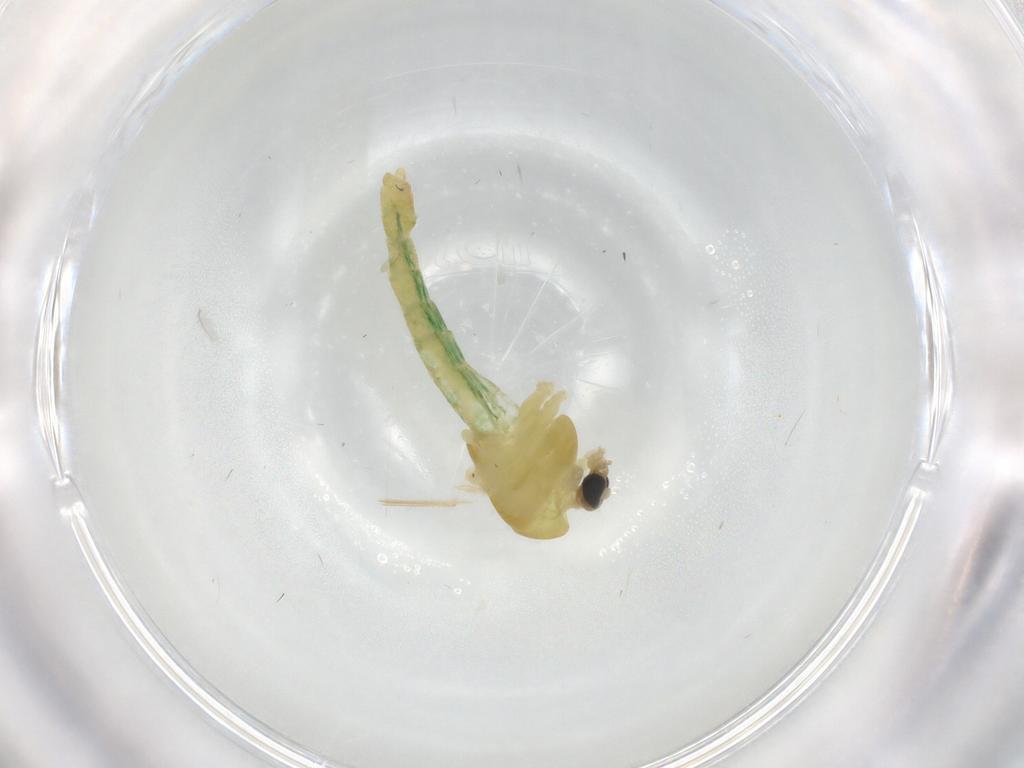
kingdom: Animalia
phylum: Arthropoda
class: Insecta
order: Diptera
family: Chironomidae
